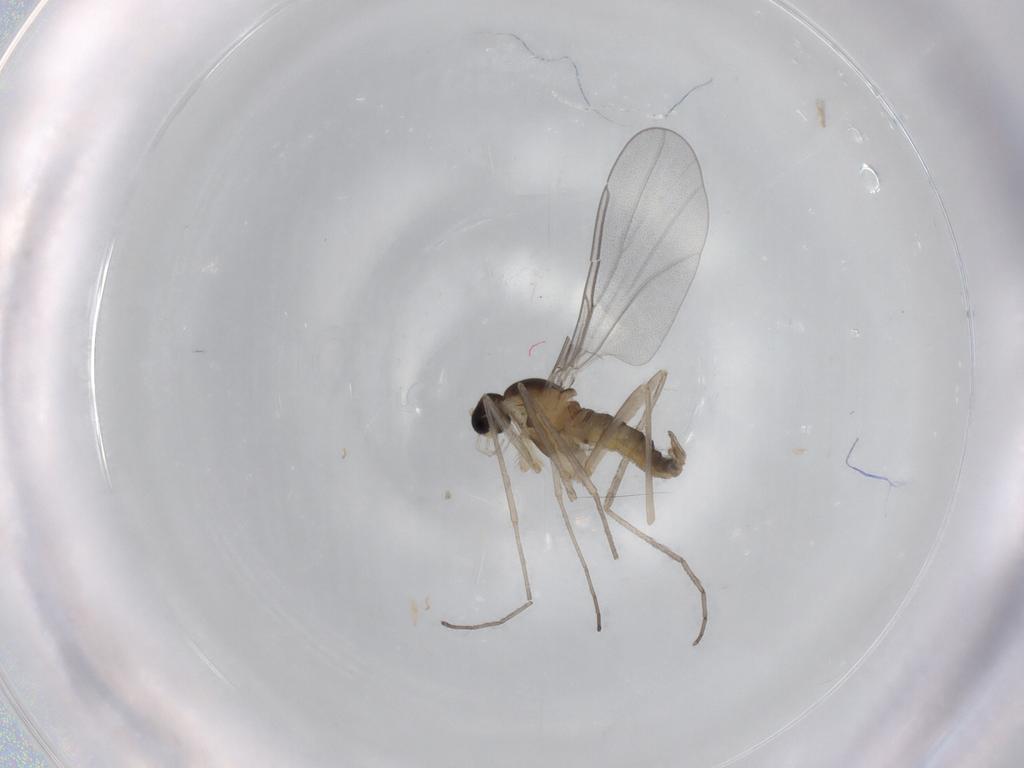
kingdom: Animalia
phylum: Arthropoda
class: Insecta
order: Diptera
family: Cecidomyiidae
